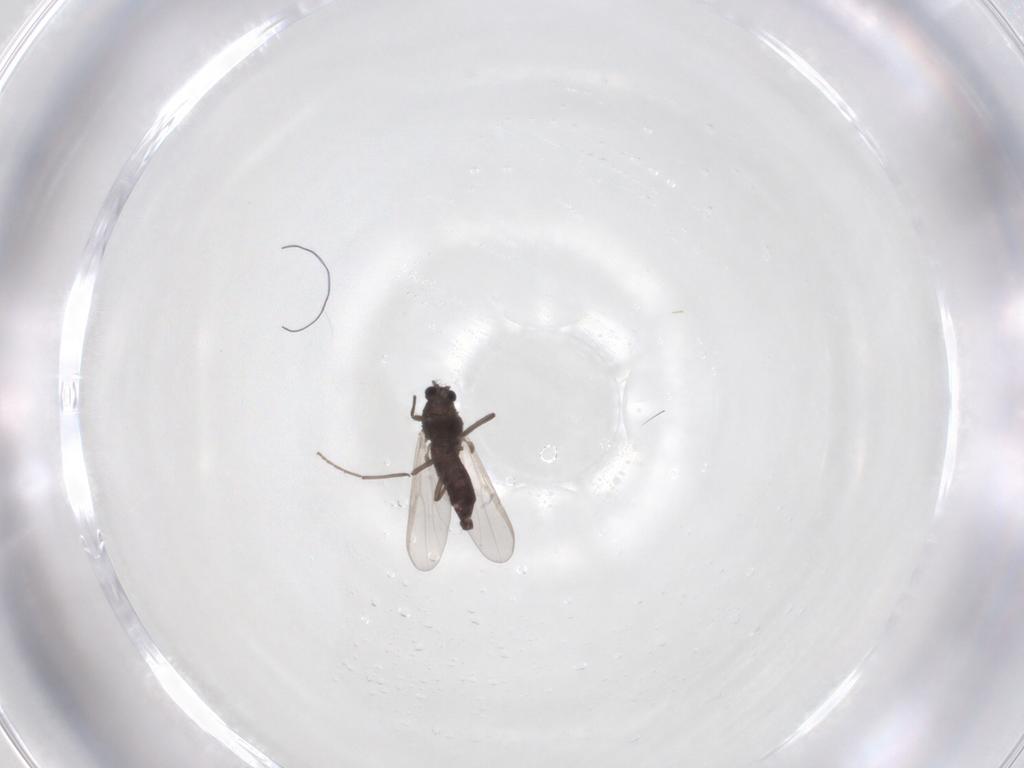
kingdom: Animalia
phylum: Arthropoda
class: Insecta
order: Diptera
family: Chironomidae
